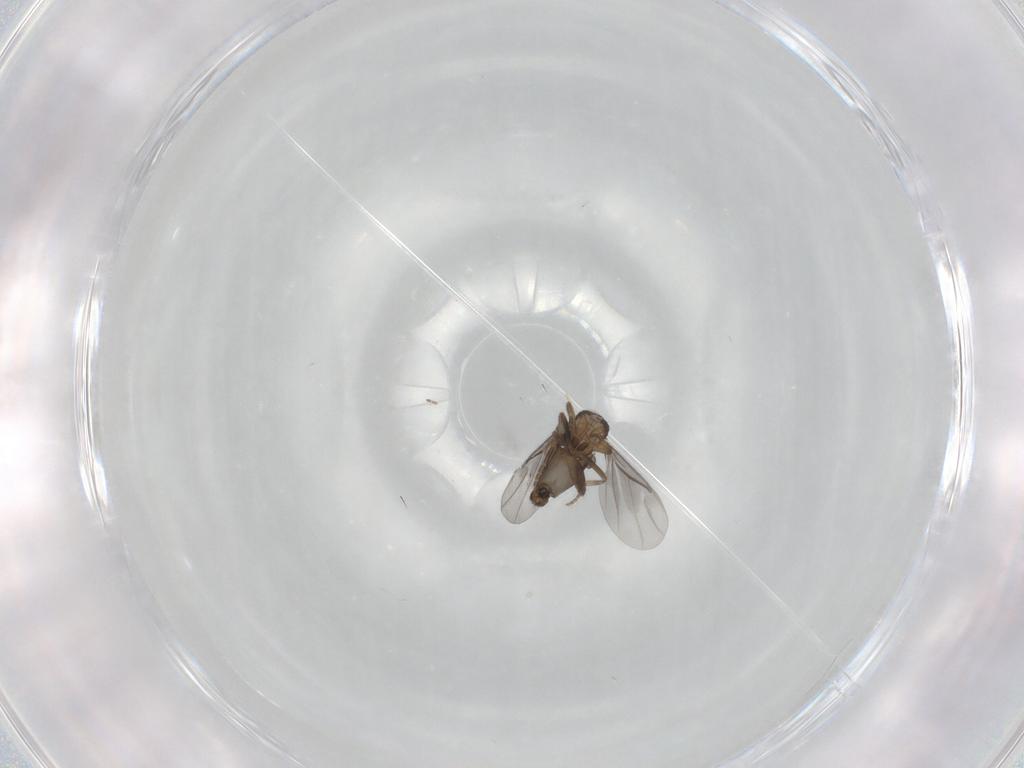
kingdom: Animalia
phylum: Arthropoda
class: Insecta
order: Diptera
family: Phoridae
